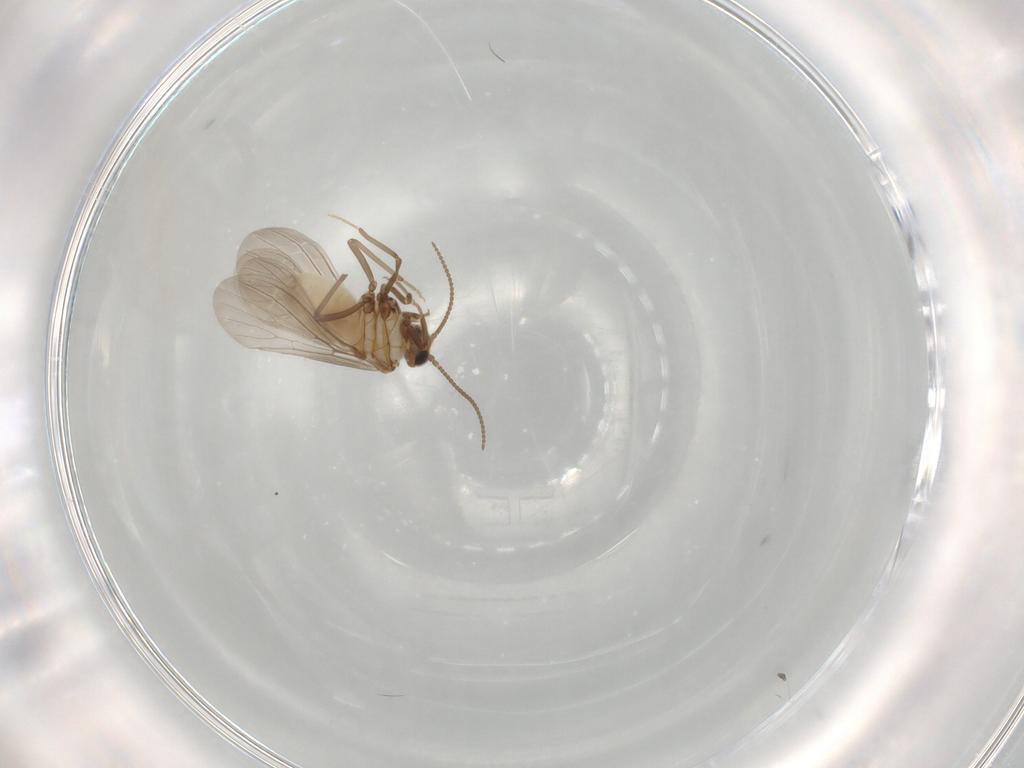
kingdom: Animalia
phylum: Arthropoda
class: Insecta
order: Neuroptera
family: Coniopterygidae
